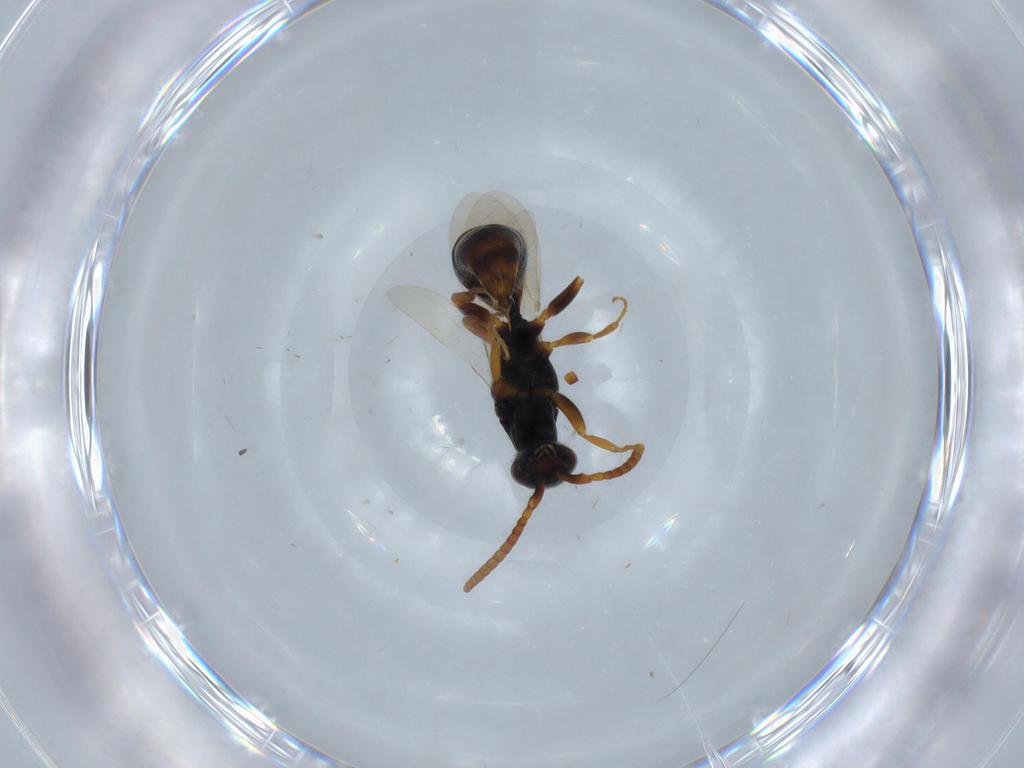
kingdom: Animalia
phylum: Arthropoda
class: Insecta
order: Hymenoptera
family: Bethylidae
